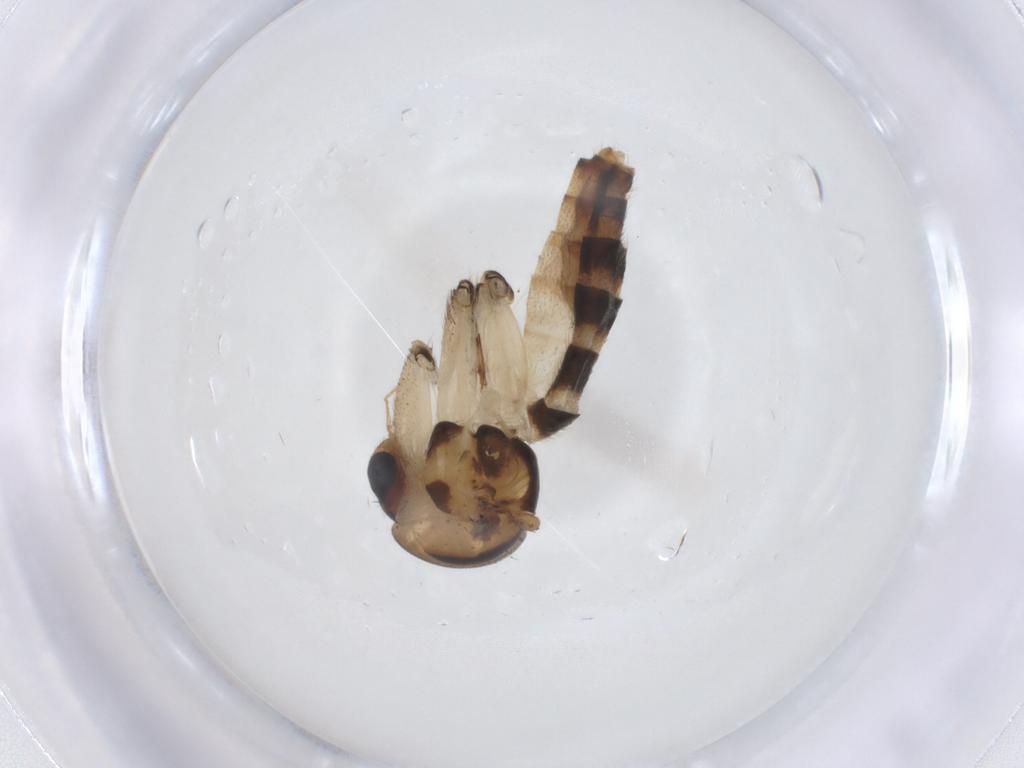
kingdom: Animalia
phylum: Arthropoda
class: Insecta
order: Diptera
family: Mycetophilidae
